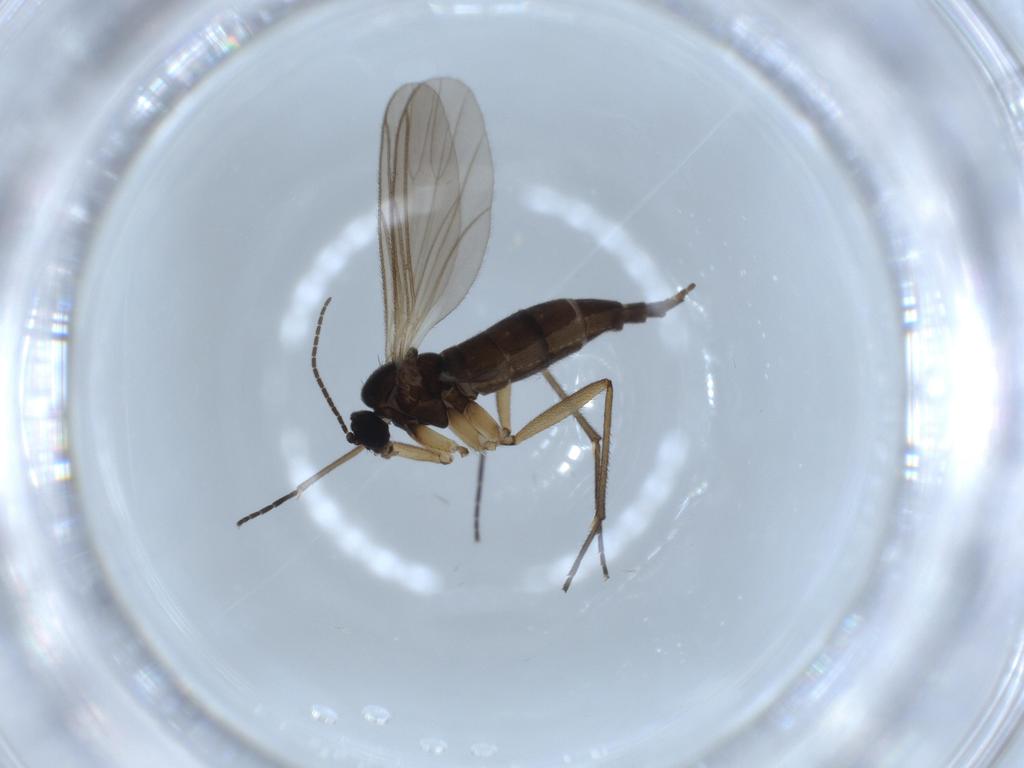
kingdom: Animalia
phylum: Arthropoda
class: Insecta
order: Diptera
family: Sciaridae
